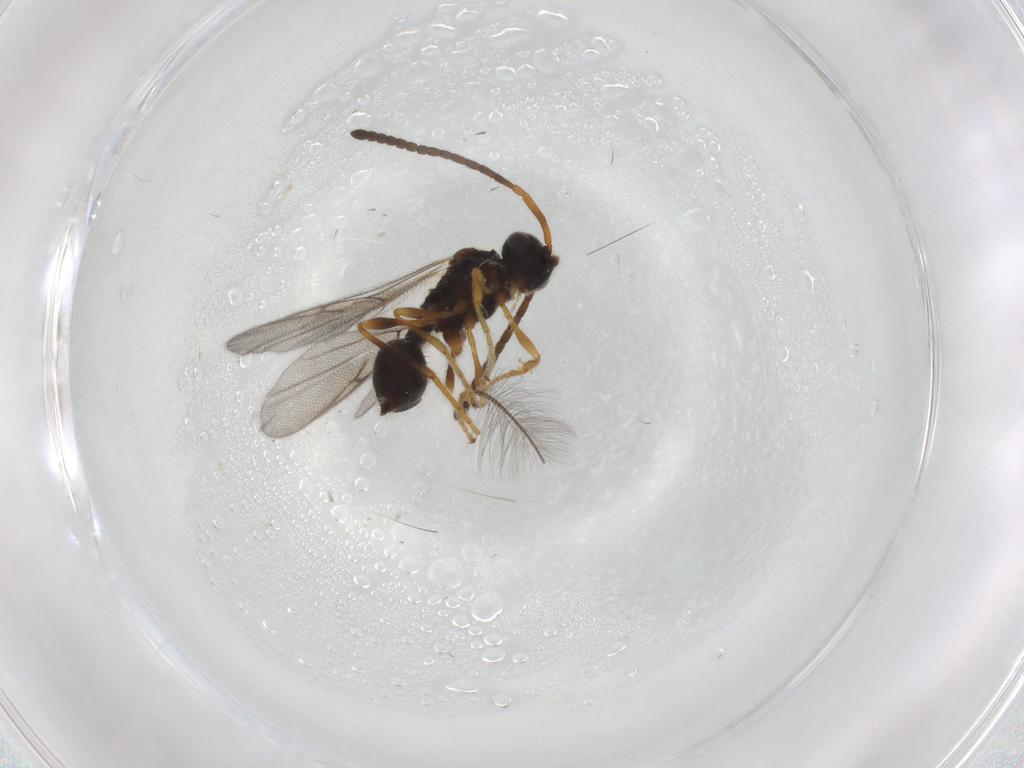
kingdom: Animalia
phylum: Arthropoda
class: Insecta
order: Hymenoptera
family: Diapriidae
